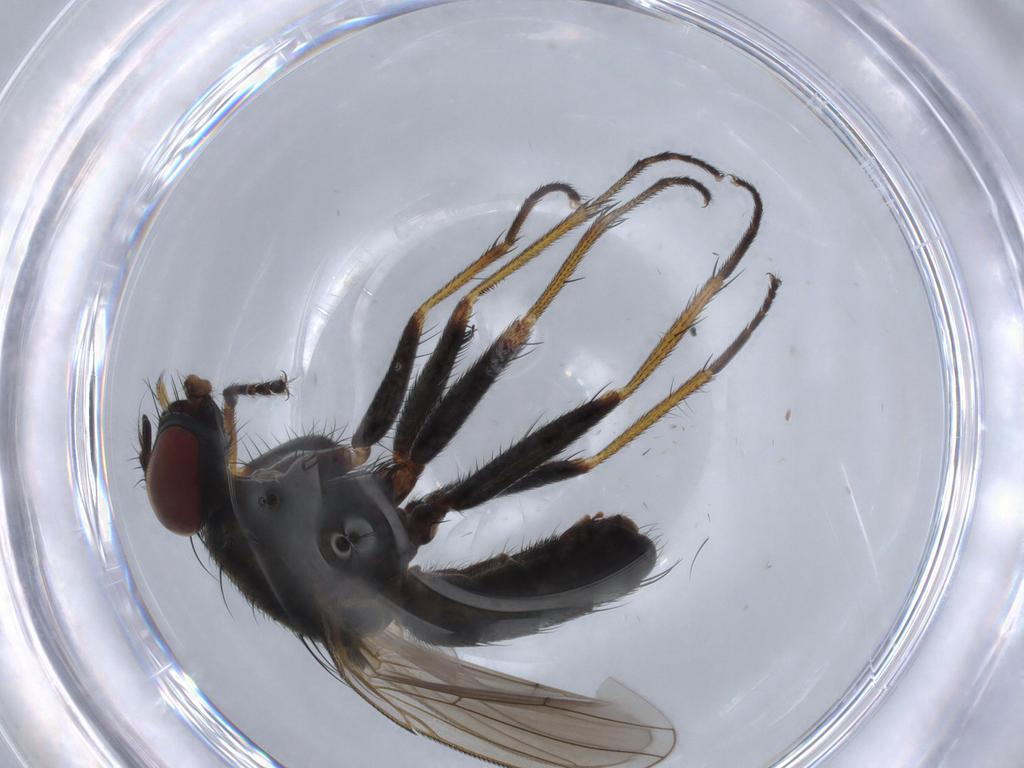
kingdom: Animalia
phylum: Arthropoda
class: Insecta
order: Diptera
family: Muscidae
